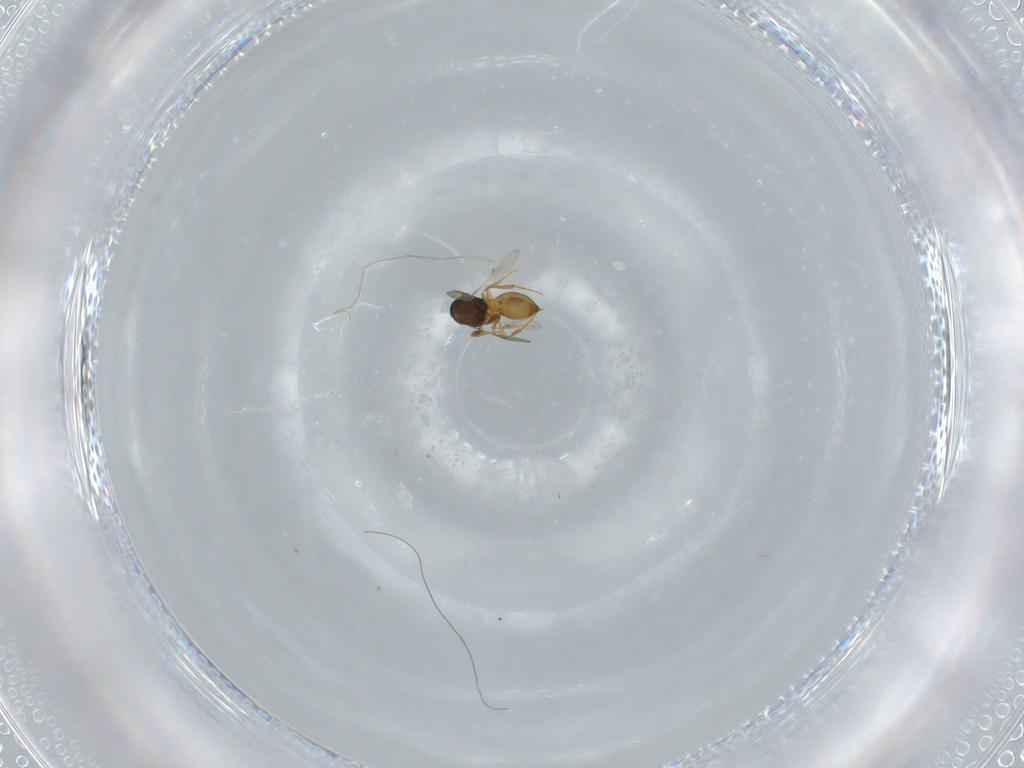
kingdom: Animalia
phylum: Arthropoda
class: Insecta
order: Hymenoptera
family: Scelionidae
